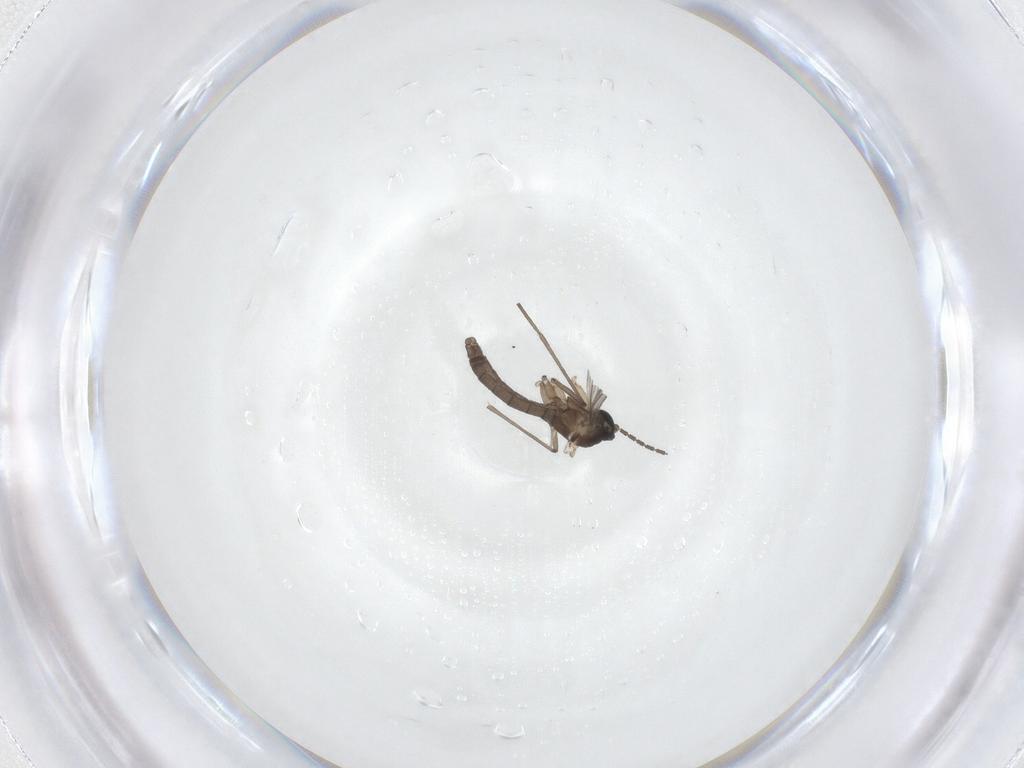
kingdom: Animalia
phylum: Arthropoda
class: Insecta
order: Diptera
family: Sciaridae
